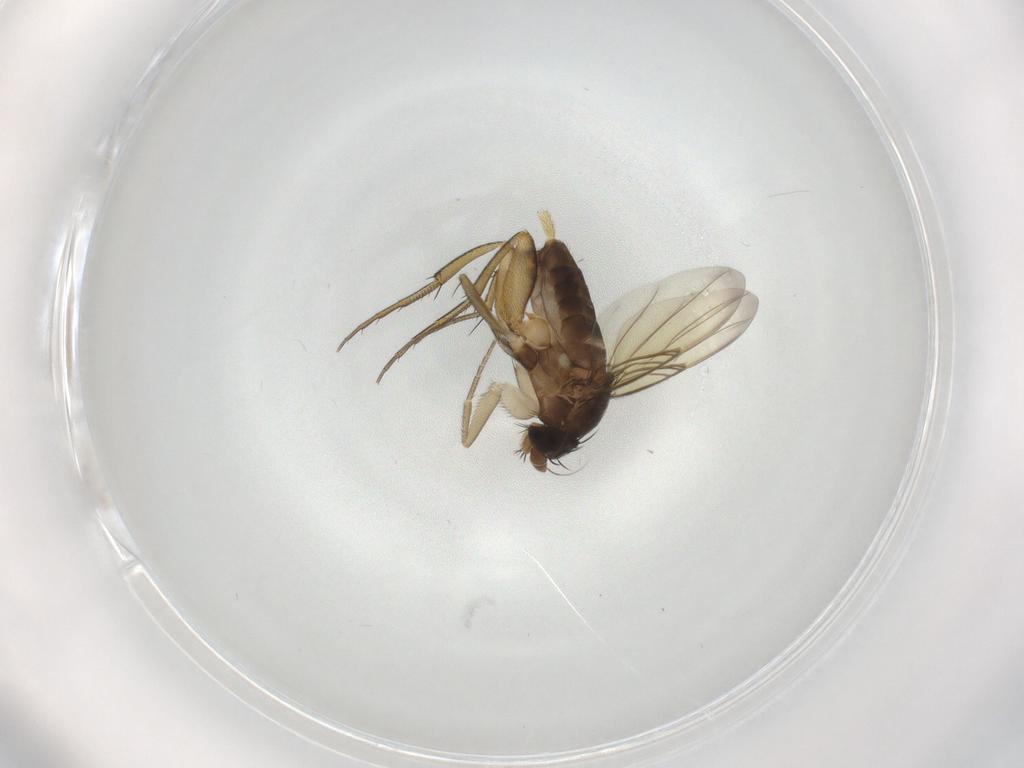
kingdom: Animalia
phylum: Arthropoda
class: Insecta
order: Diptera
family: Phoridae
